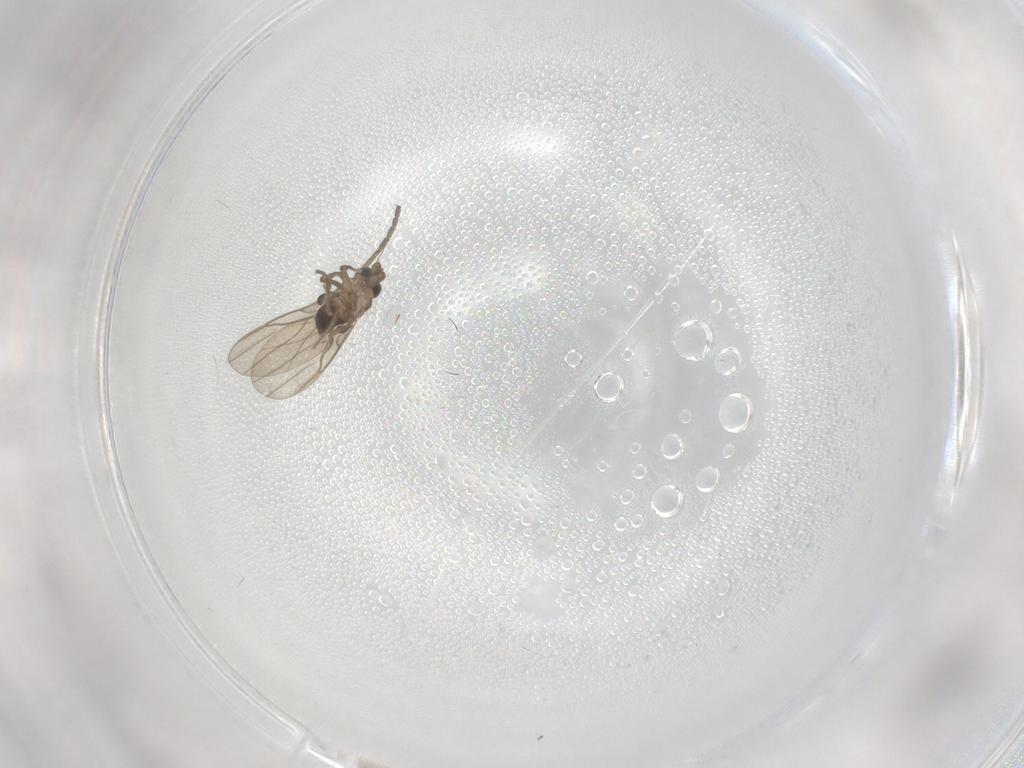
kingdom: Animalia
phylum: Arthropoda
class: Insecta
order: Diptera
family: Phoridae
